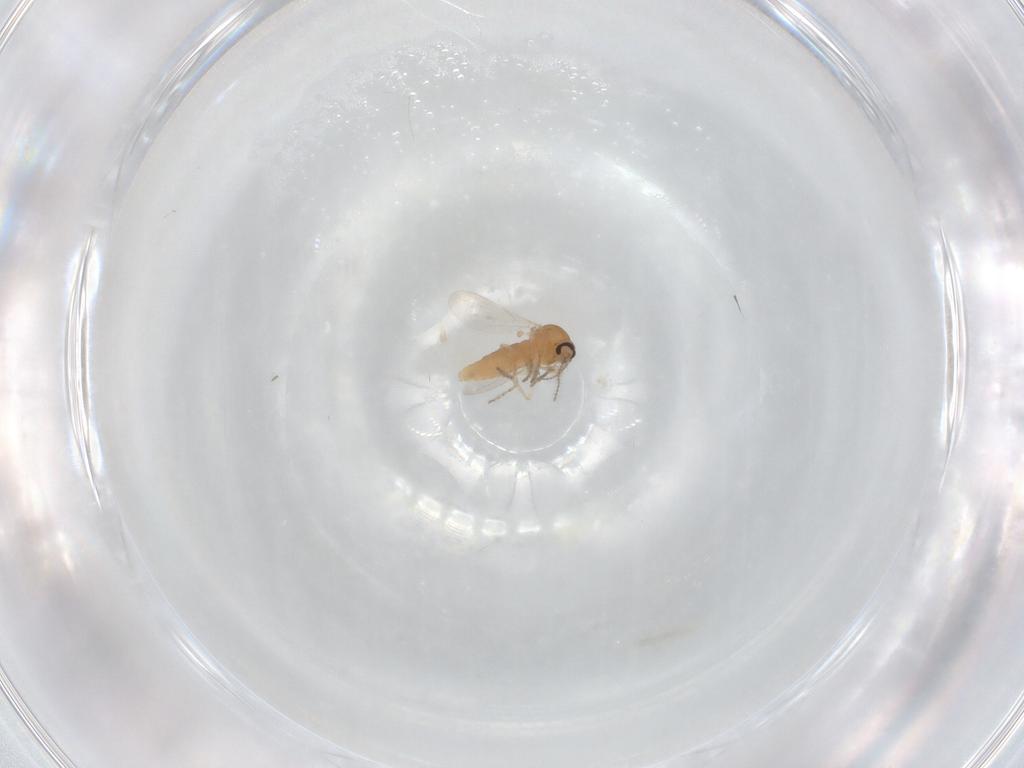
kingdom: Animalia
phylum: Arthropoda
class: Insecta
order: Diptera
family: Ceratopogonidae
